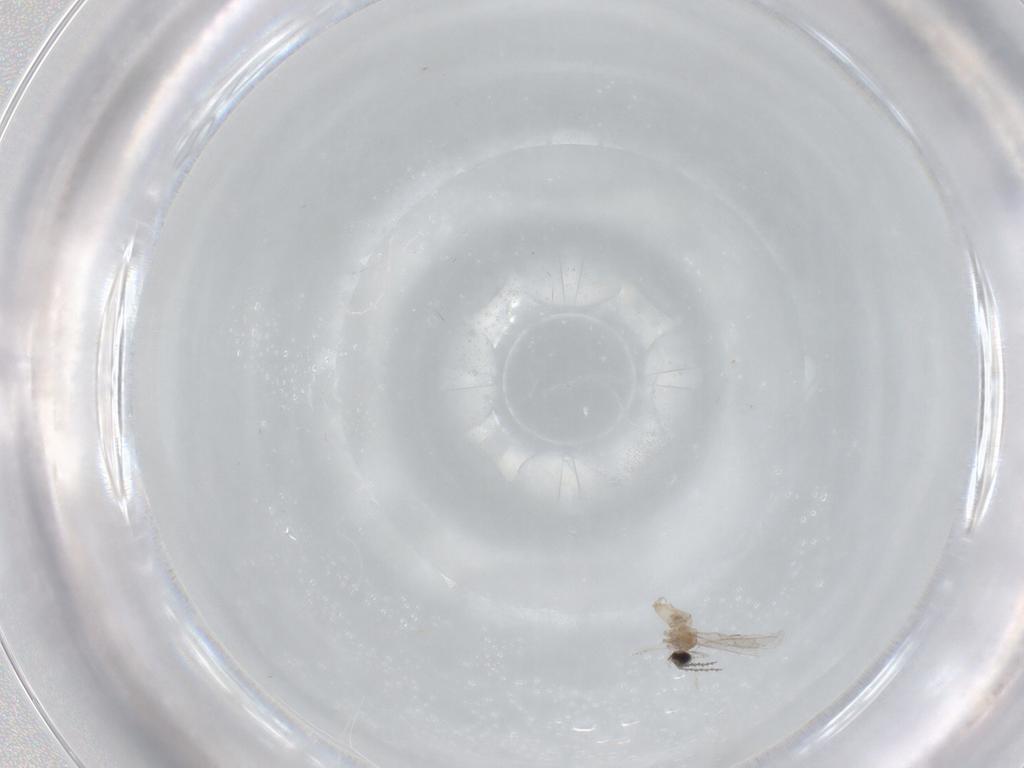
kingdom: Animalia
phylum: Arthropoda
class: Insecta
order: Diptera
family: Cecidomyiidae
